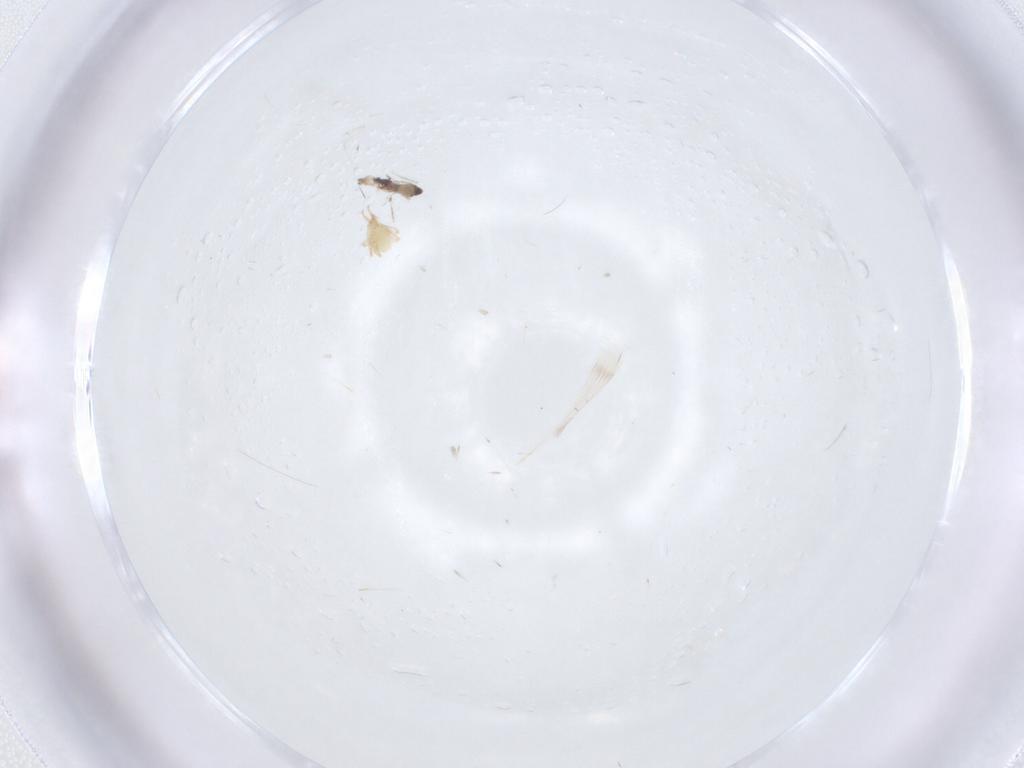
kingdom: Animalia
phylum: Arthropoda
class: Insecta
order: Diptera
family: Cecidomyiidae
